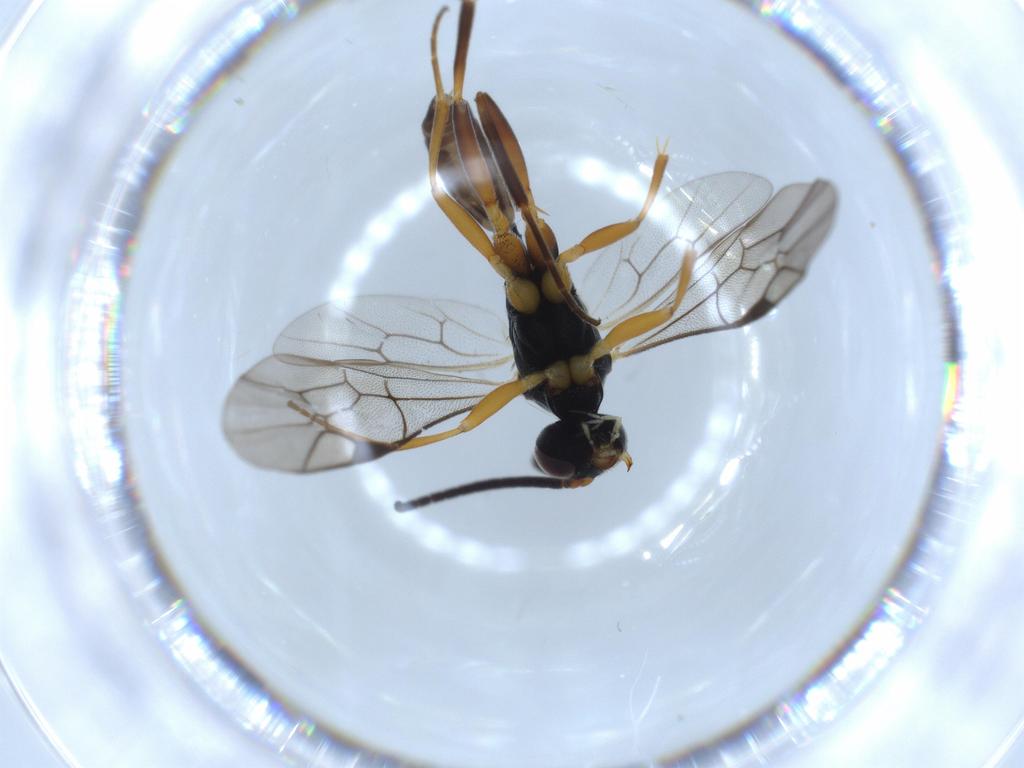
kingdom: Animalia
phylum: Arthropoda
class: Insecta
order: Hymenoptera
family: Ichneumonidae
